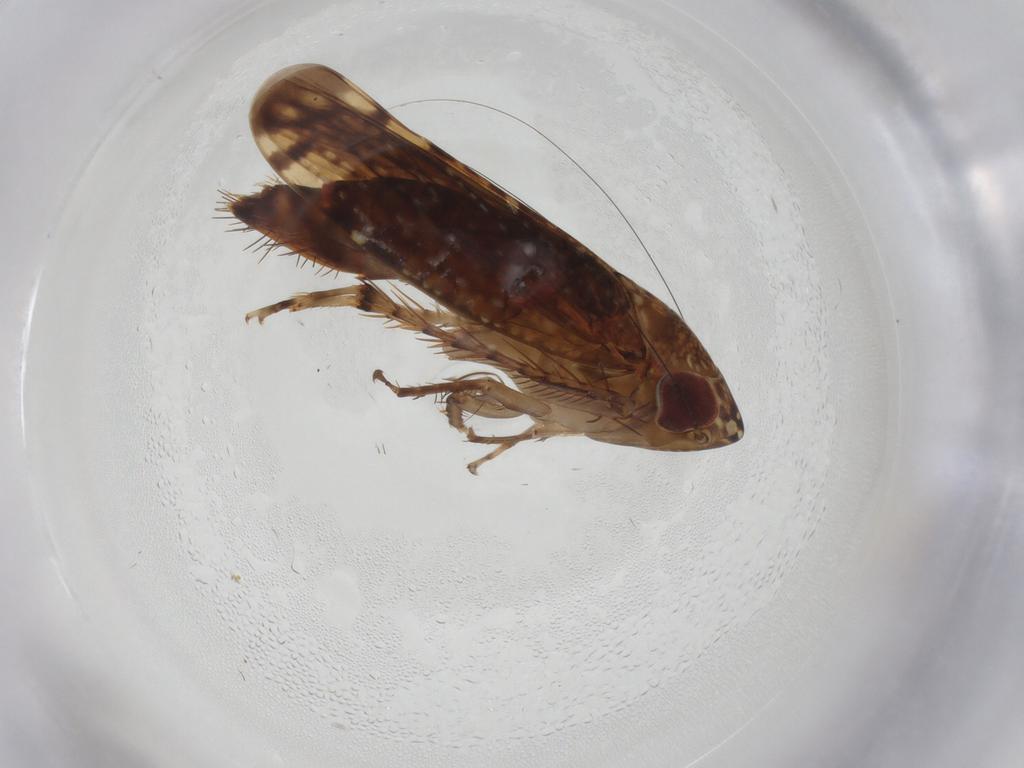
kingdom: Animalia
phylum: Arthropoda
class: Insecta
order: Hemiptera
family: Cicadellidae
